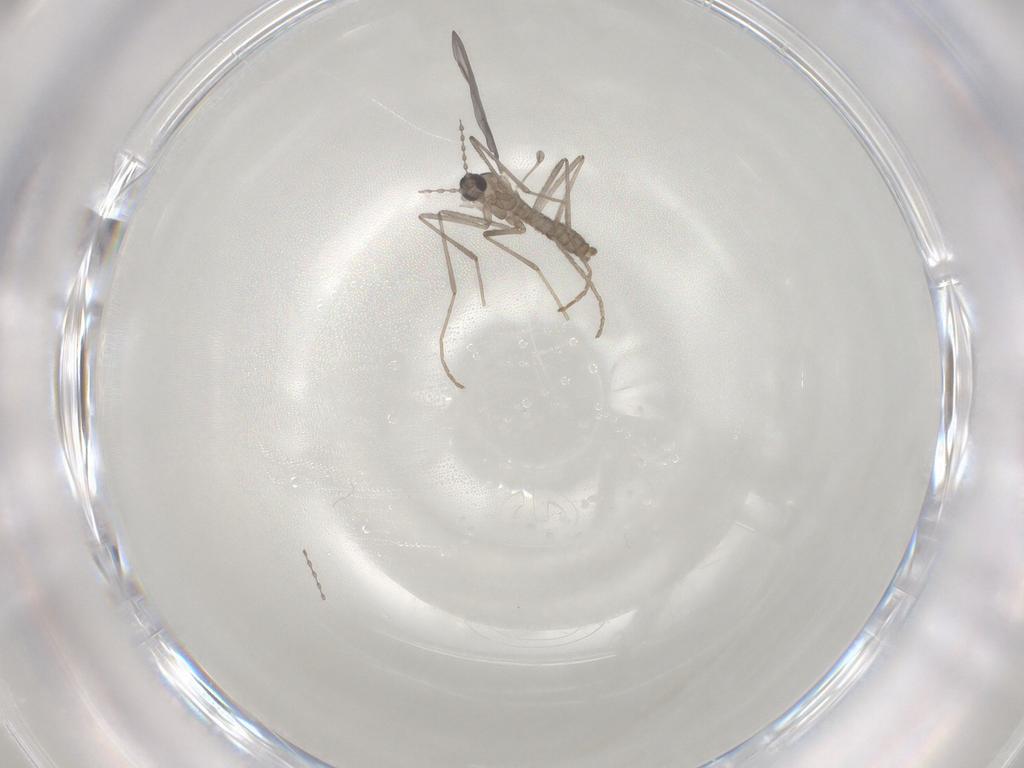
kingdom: Animalia
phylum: Arthropoda
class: Insecta
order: Diptera
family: Cecidomyiidae
